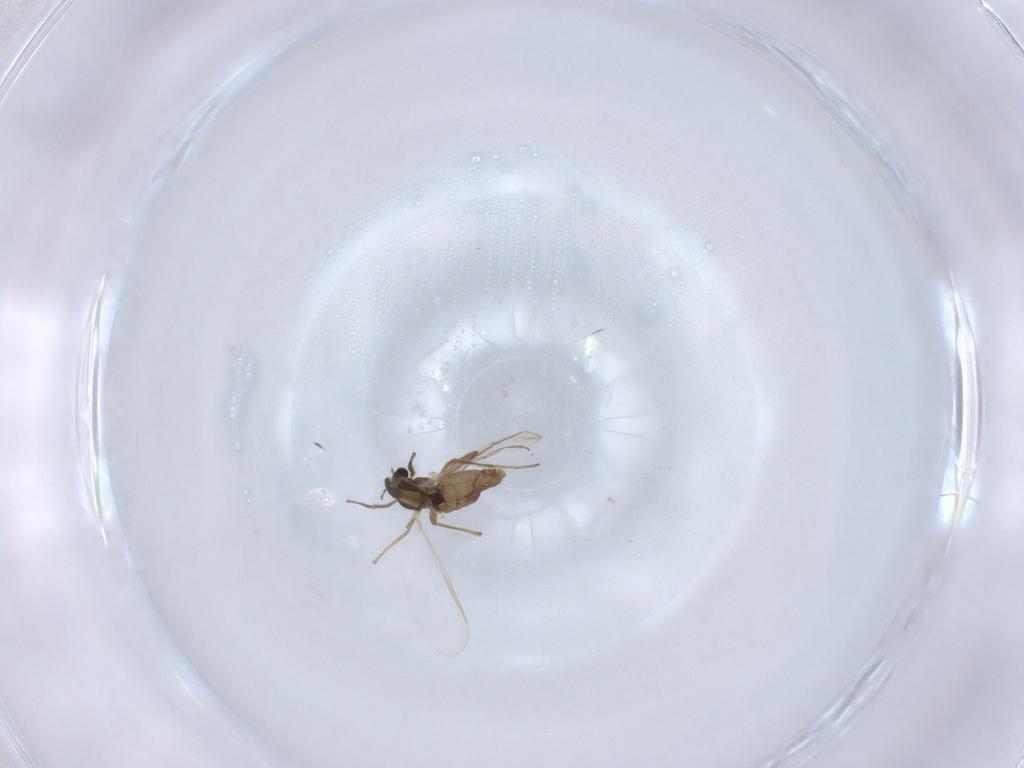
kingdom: Animalia
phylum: Arthropoda
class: Insecta
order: Diptera
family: Chironomidae
